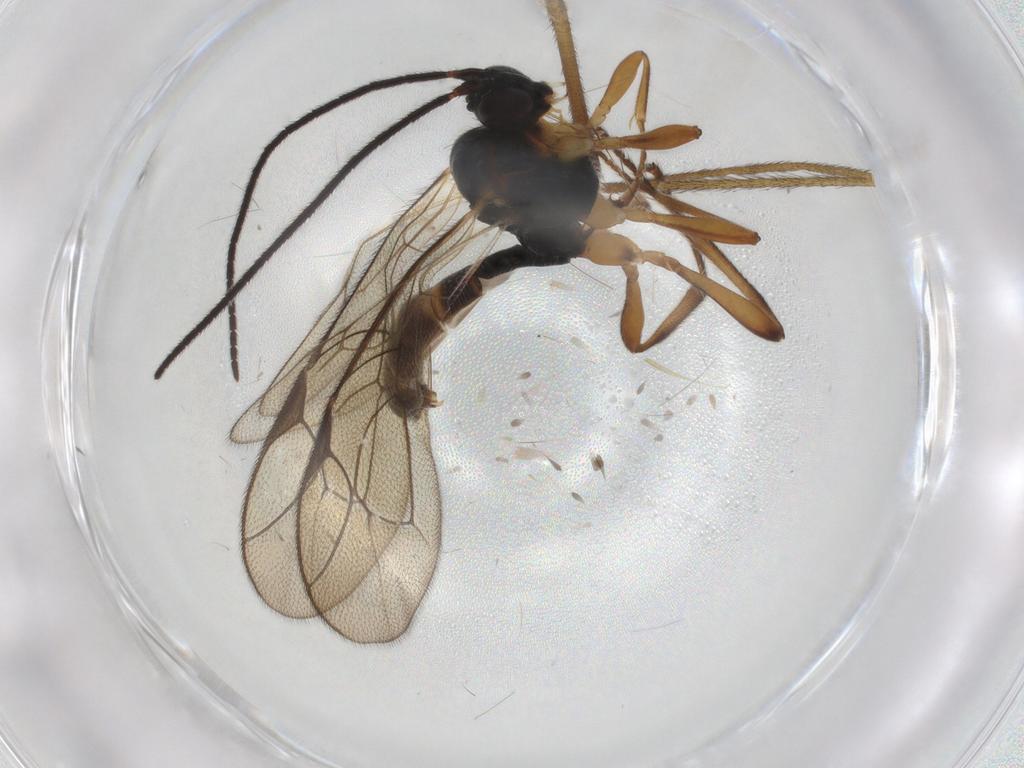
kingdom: Animalia
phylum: Arthropoda
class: Insecta
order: Hymenoptera
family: Ichneumonidae
